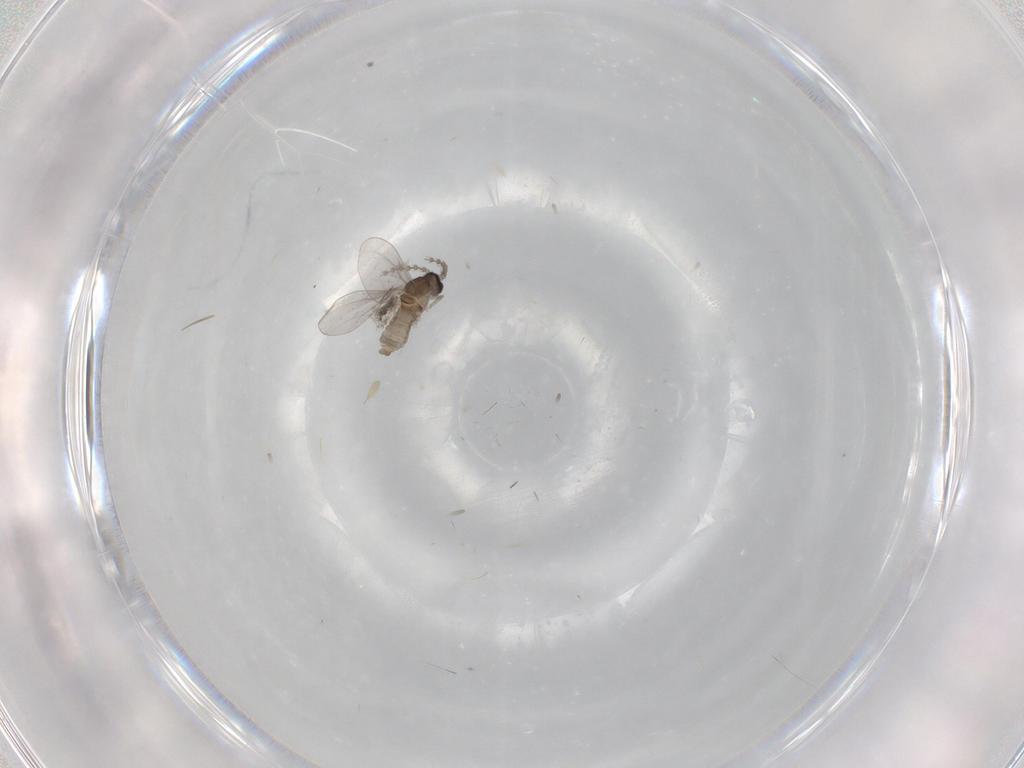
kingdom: Animalia
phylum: Arthropoda
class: Insecta
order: Diptera
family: Cecidomyiidae
